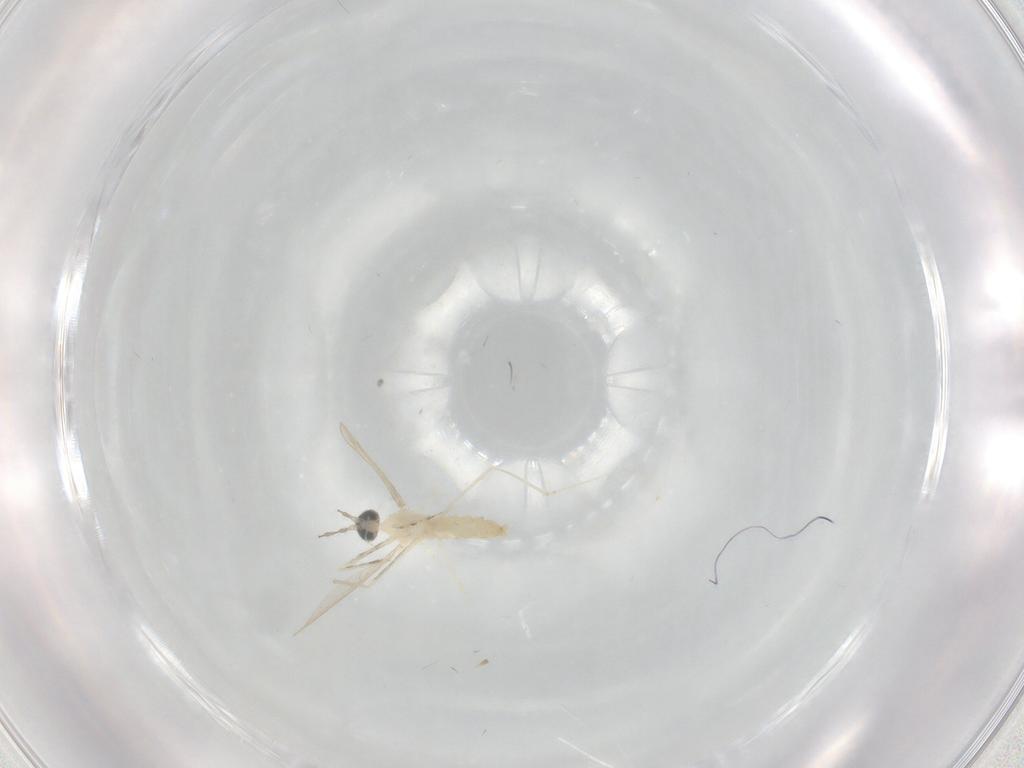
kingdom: Animalia
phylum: Arthropoda
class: Insecta
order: Diptera
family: Cecidomyiidae
